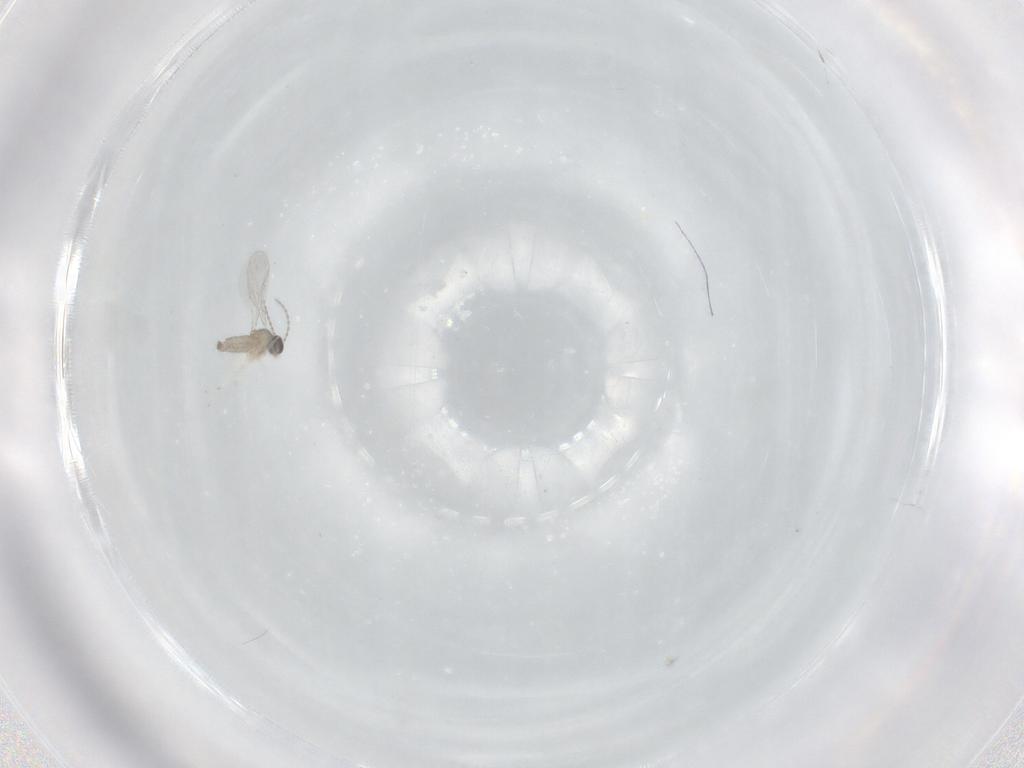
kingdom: Animalia
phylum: Arthropoda
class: Insecta
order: Diptera
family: Cecidomyiidae
